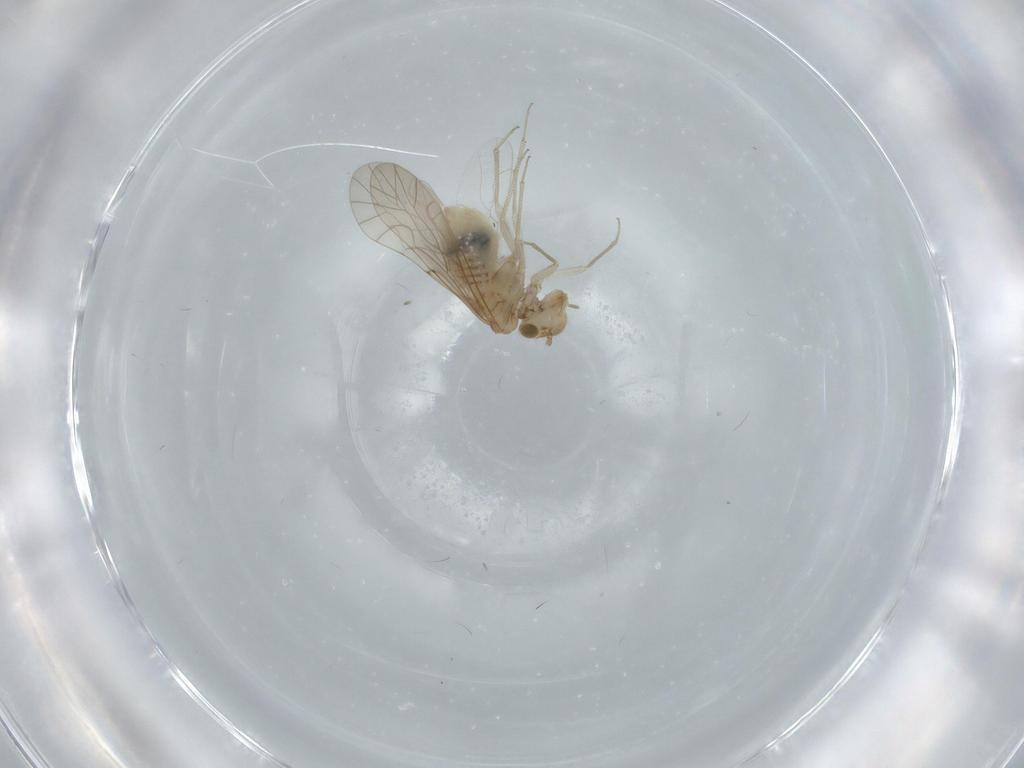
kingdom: Animalia
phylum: Arthropoda
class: Insecta
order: Psocodea
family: Lachesillidae
